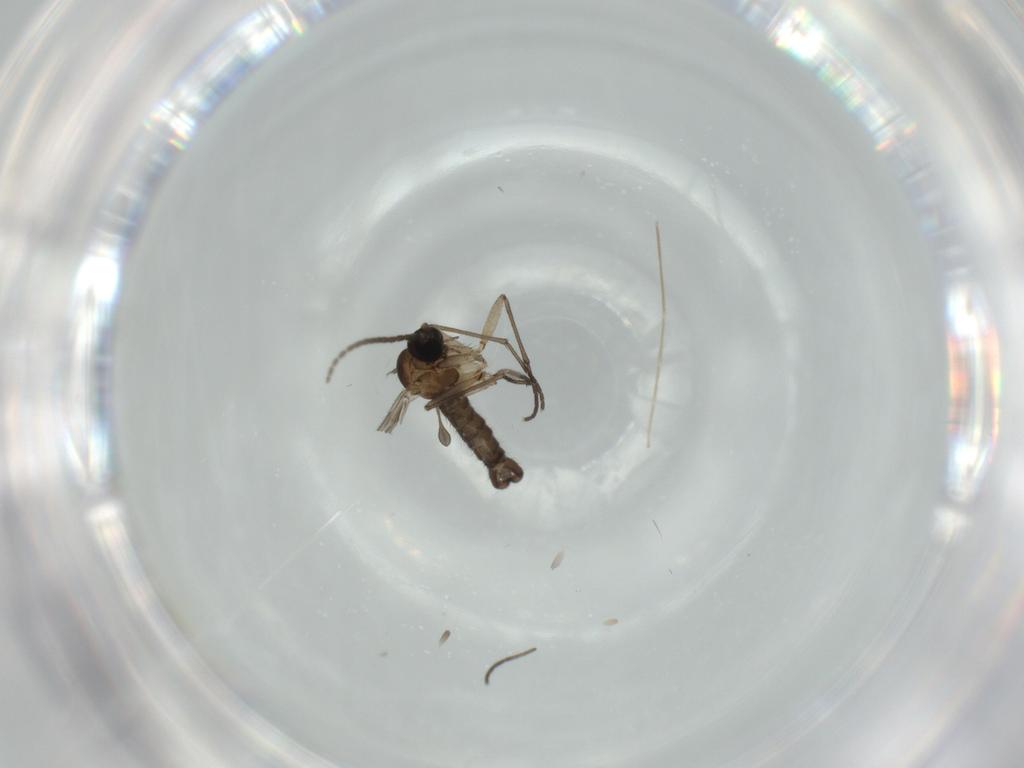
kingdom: Animalia
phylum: Arthropoda
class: Insecta
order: Diptera
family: Sciaridae
